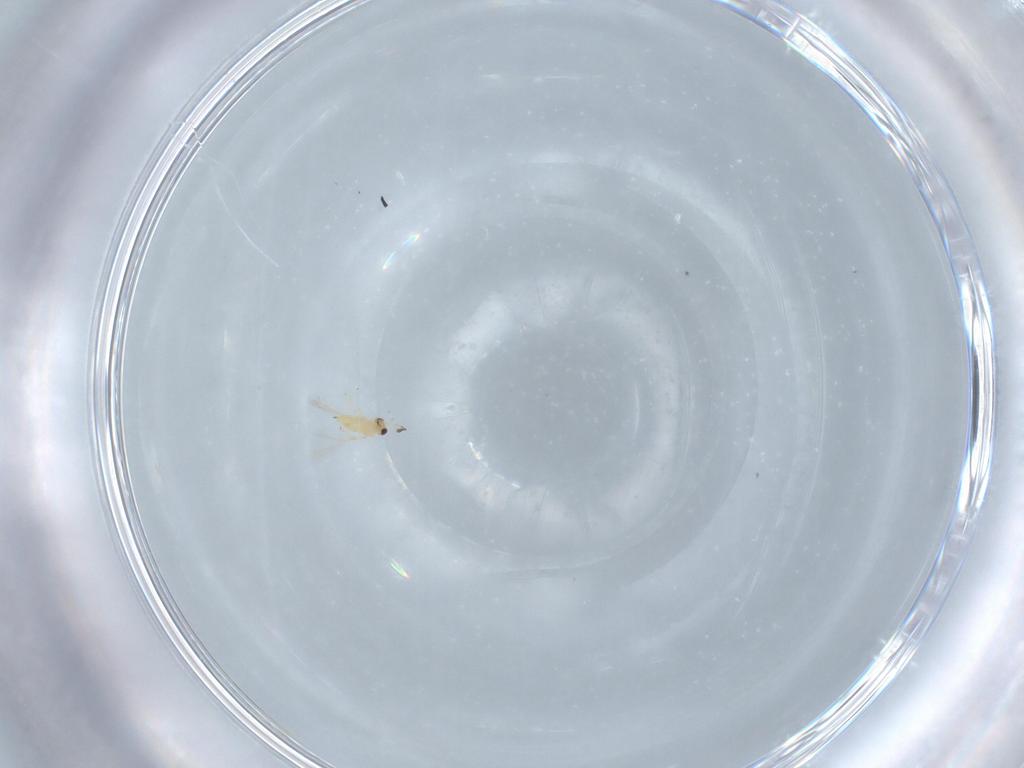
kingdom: Animalia
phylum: Arthropoda
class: Insecta
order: Hymenoptera
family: Mymaridae
